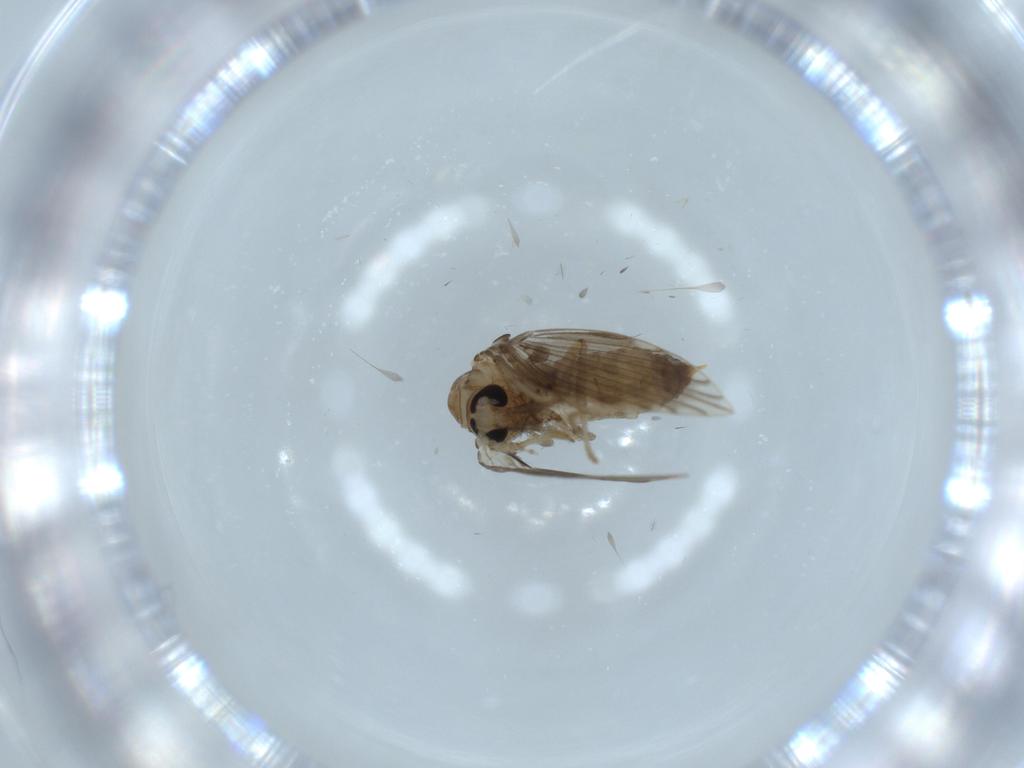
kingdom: Animalia
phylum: Arthropoda
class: Insecta
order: Diptera
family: Psychodidae
